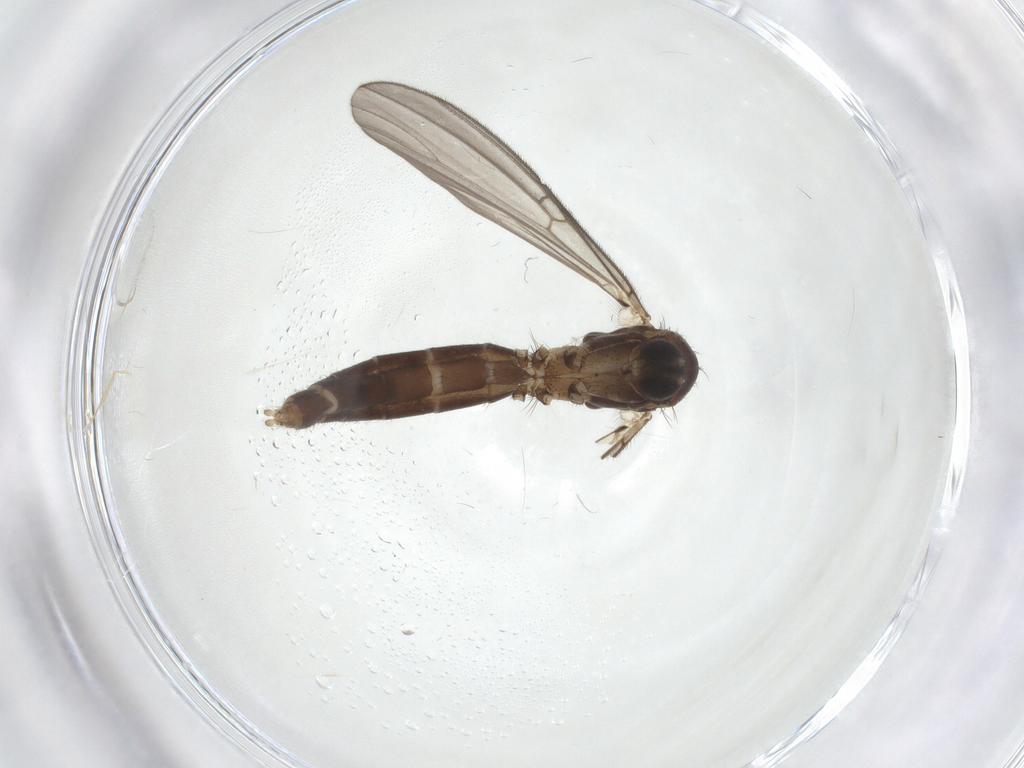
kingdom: Animalia
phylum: Arthropoda
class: Insecta
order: Diptera
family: Mycetophilidae
